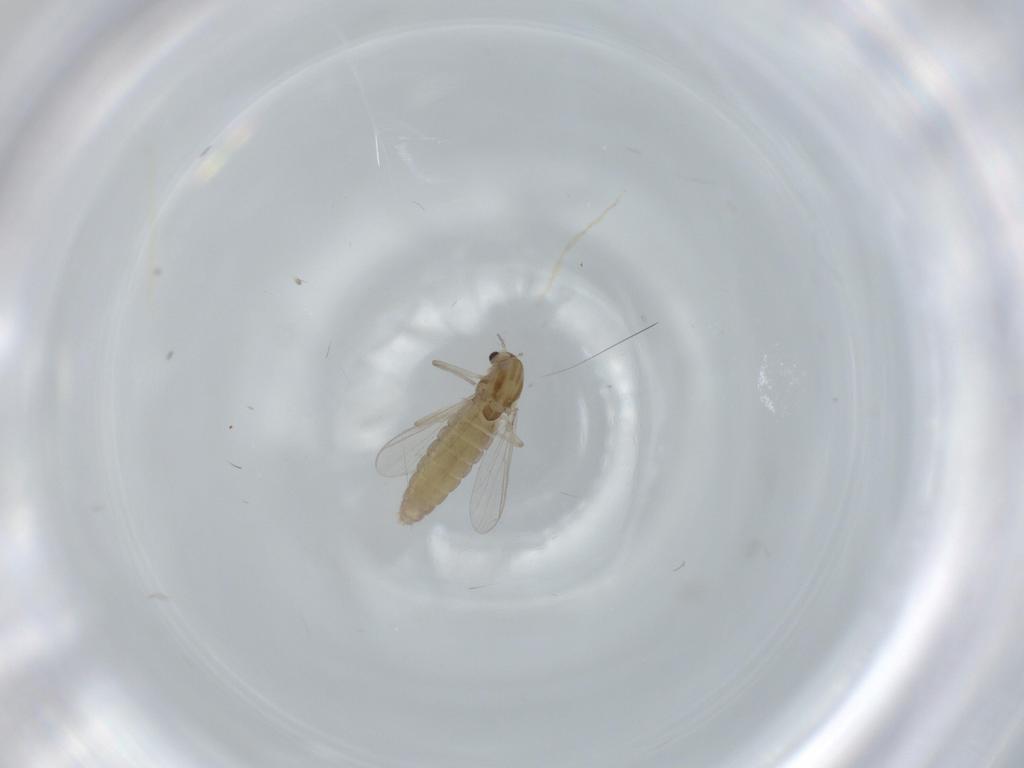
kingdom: Animalia
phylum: Arthropoda
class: Insecta
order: Diptera
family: Chironomidae
